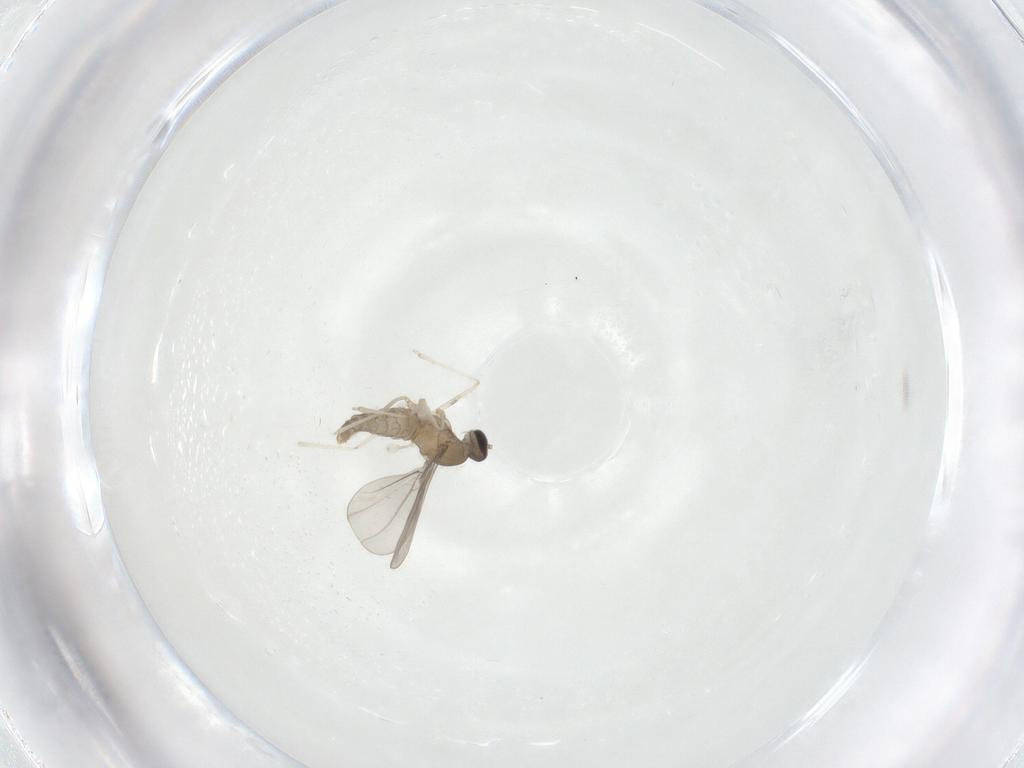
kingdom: Animalia
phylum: Arthropoda
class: Insecta
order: Diptera
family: Cecidomyiidae
